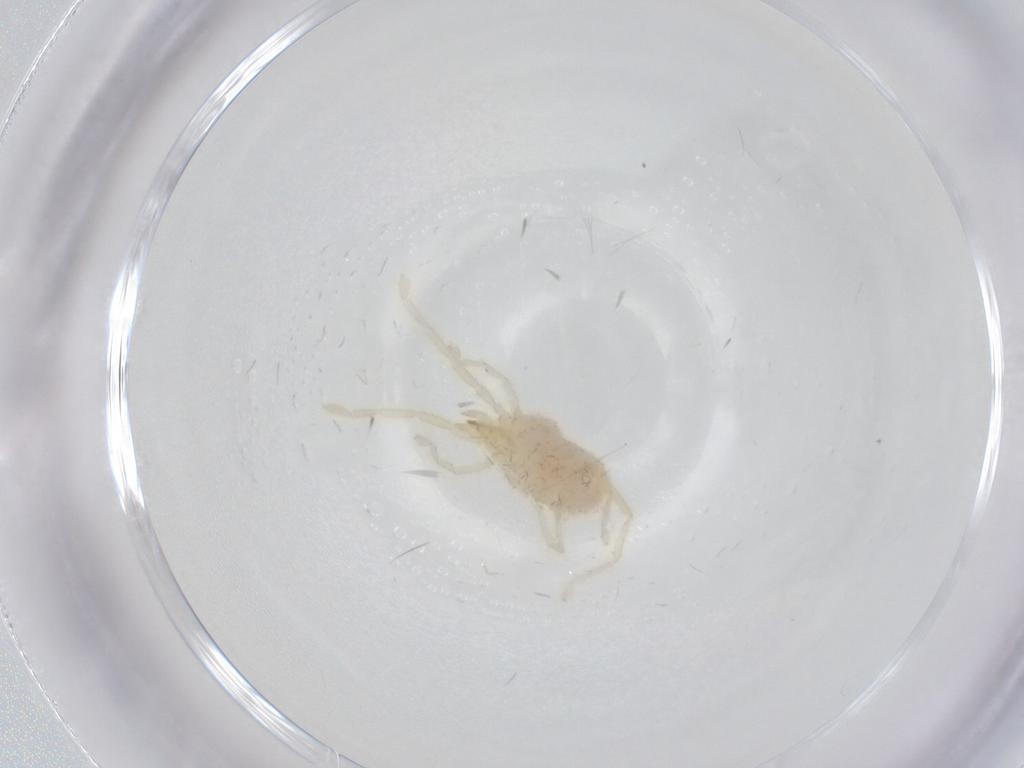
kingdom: Animalia
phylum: Arthropoda
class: Arachnida
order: Trombidiformes
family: Erythraeidae
